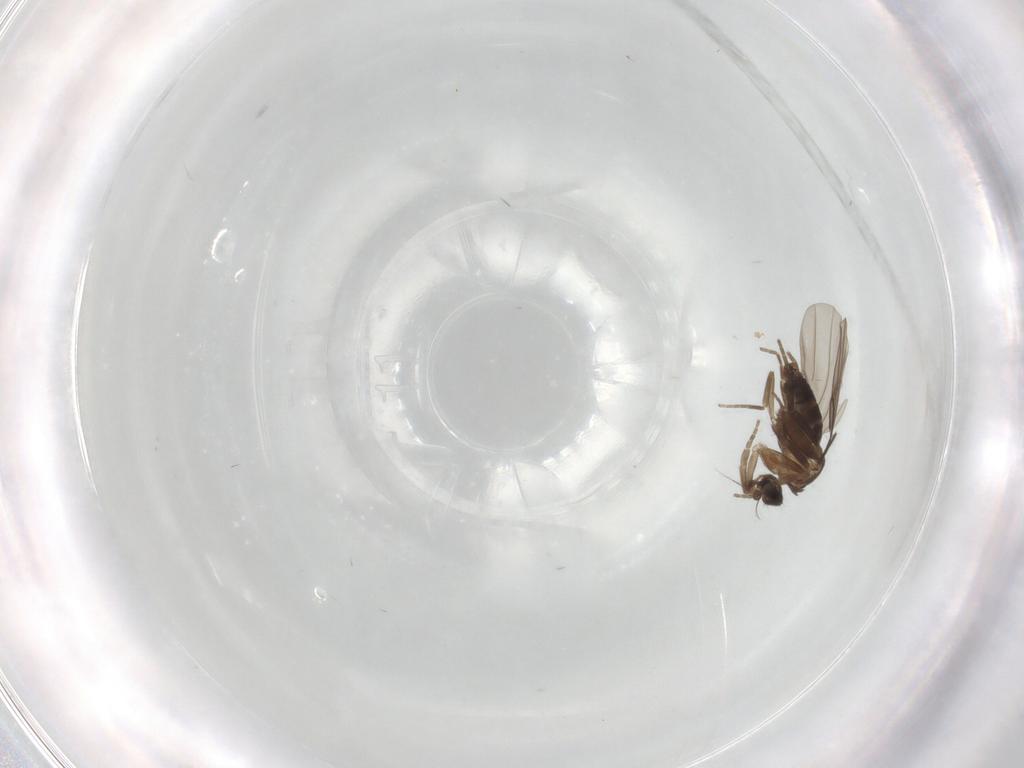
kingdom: Animalia
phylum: Arthropoda
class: Insecta
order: Diptera
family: Sciaridae
